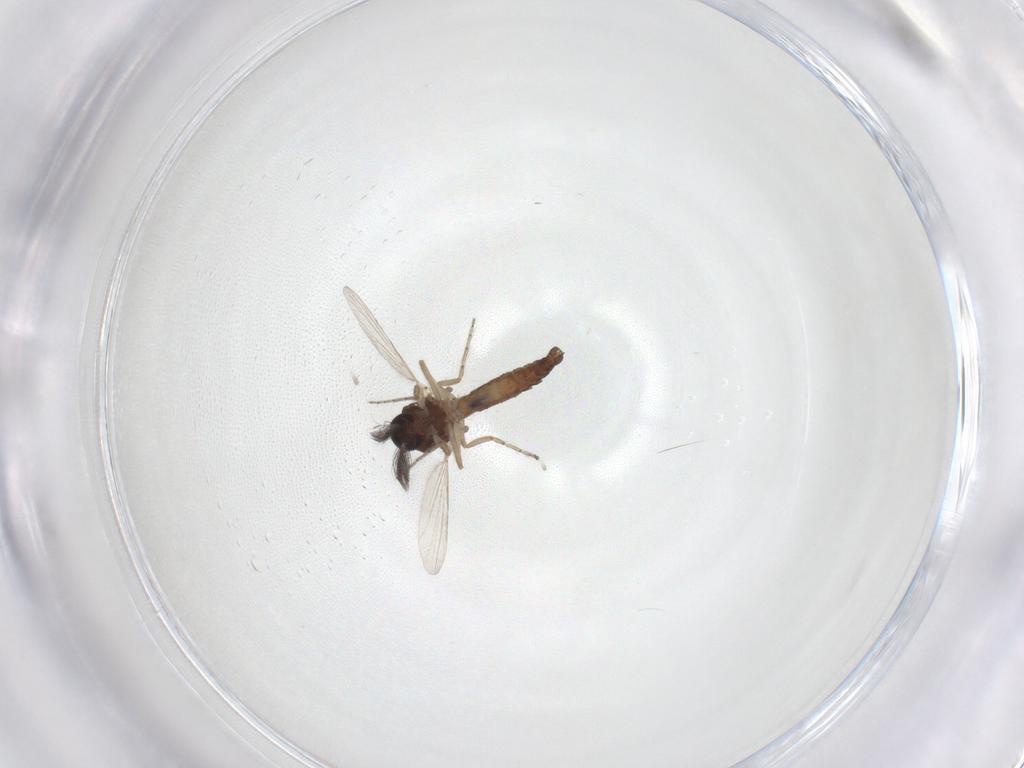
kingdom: Animalia
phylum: Arthropoda
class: Insecta
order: Diptera
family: Ceratopogonidae
